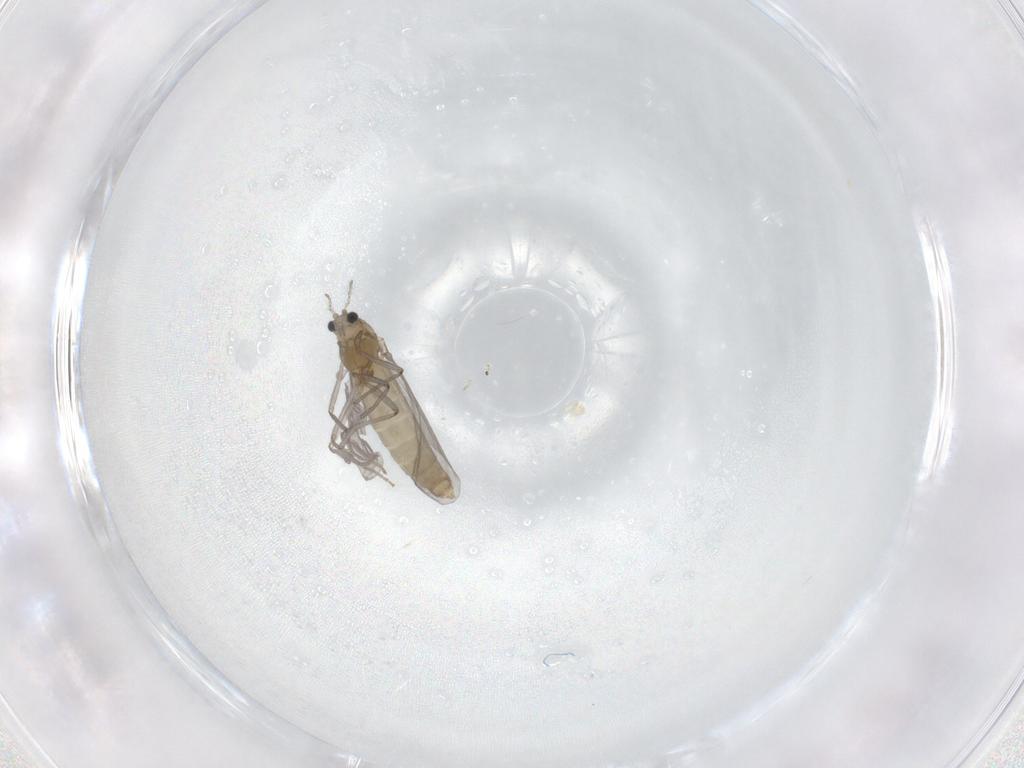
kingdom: Animalia
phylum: Arthropoda
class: Insecta
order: Diptera
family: Chironomidae
